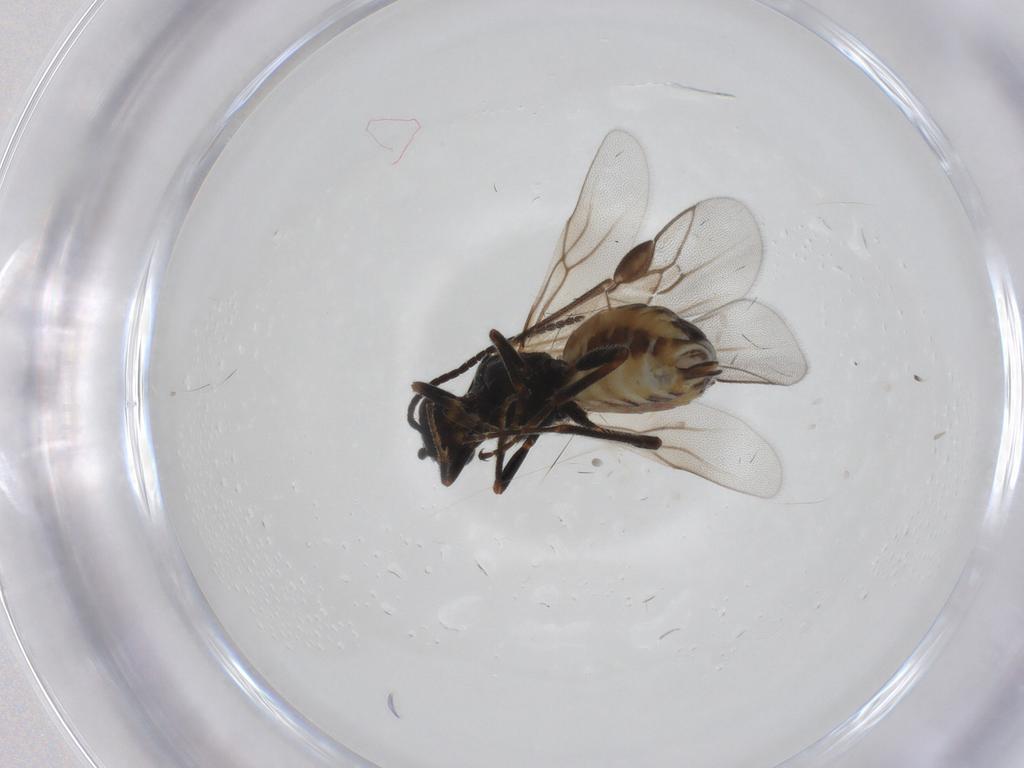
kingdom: Animalia
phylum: Arthropoda
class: Insecta
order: Hymenoptera
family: Braconidae
